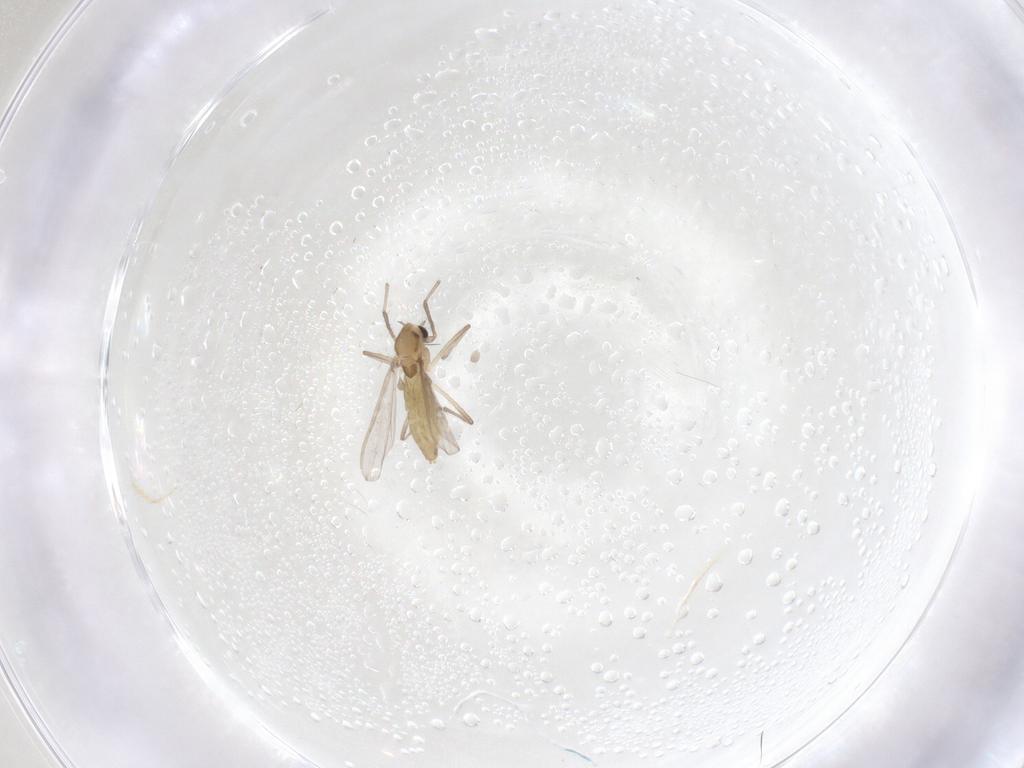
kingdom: Animalia
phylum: Arthropoda
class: Insecta
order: Diptera
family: Chironomidae
